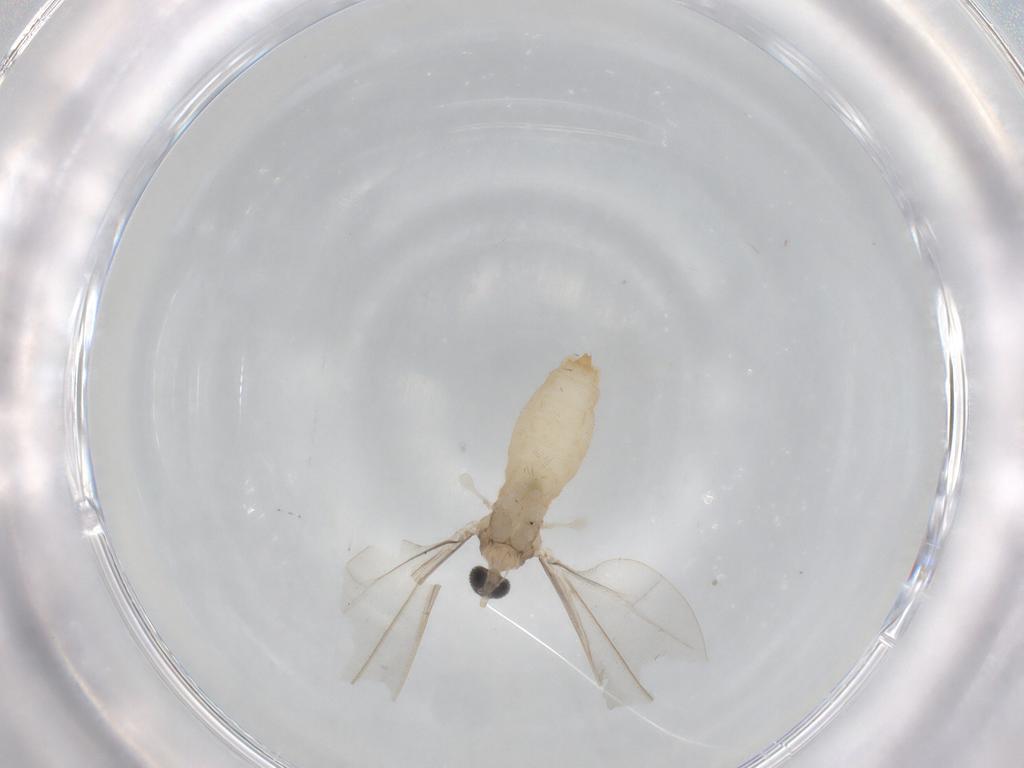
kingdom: Animalia
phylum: Arthropoda
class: Insecta
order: Diptera
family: Cecidomyiidae
